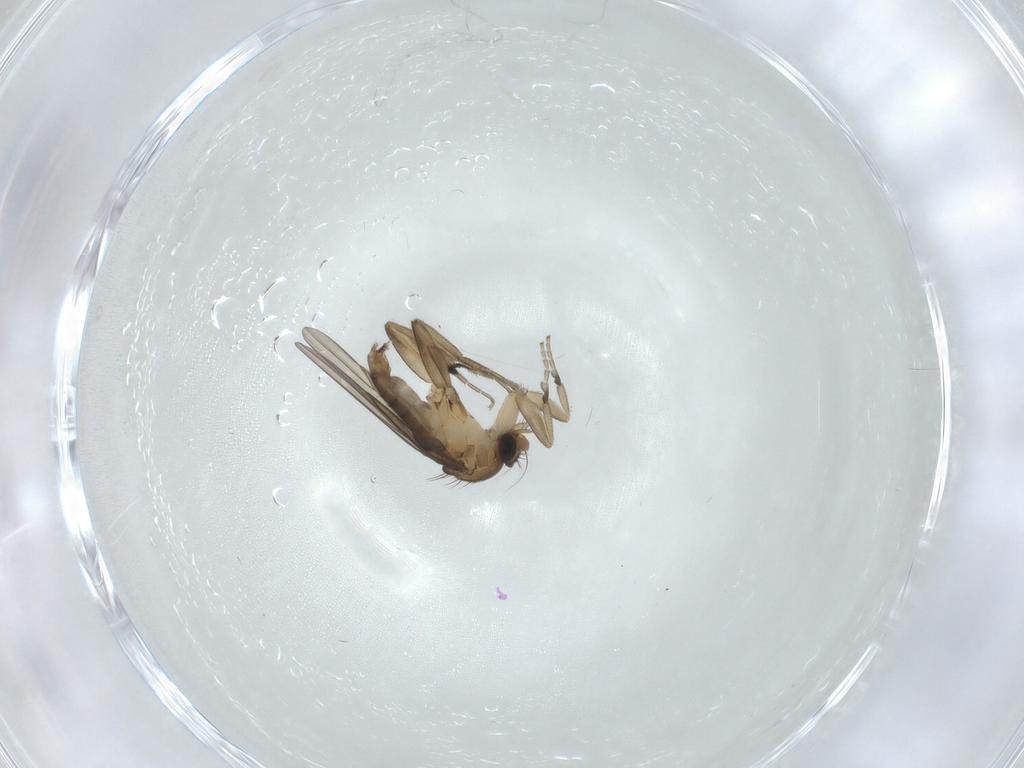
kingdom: Animalia
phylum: Arthropoda
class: Insecta
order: Diptera
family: Phoridae
